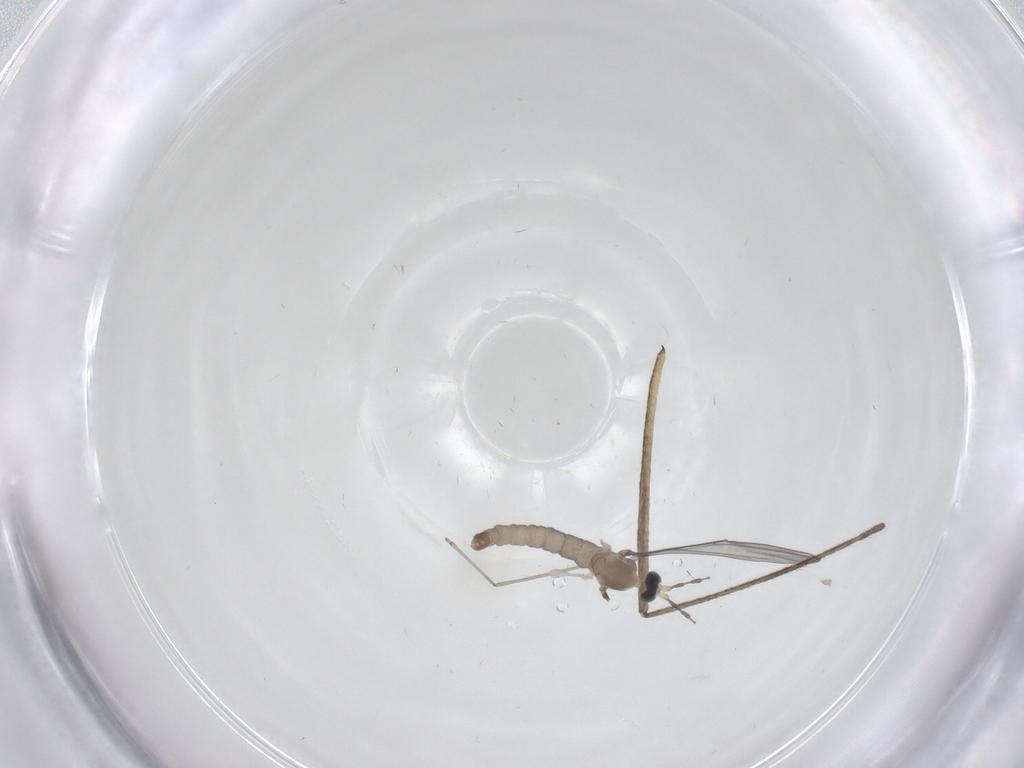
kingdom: Animalia
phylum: Arthropoda
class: Insecta
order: Diptera
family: Limoniidae
